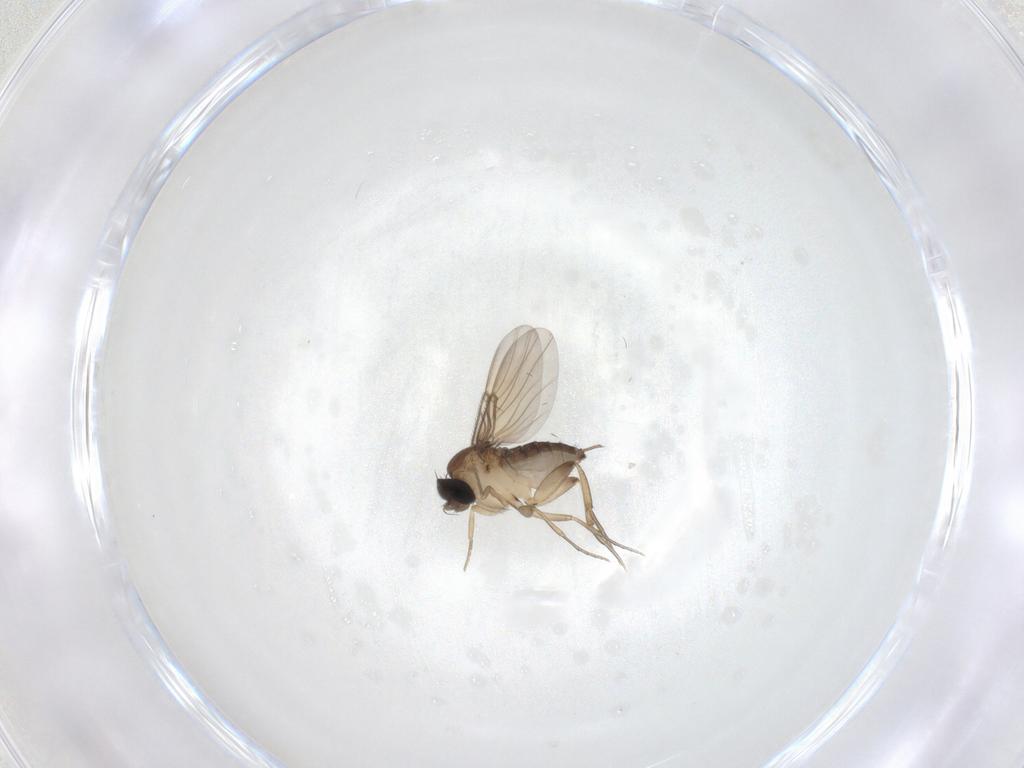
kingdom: Animalia
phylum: Arthropoda
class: Insecta
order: Diptera
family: Phoridae
